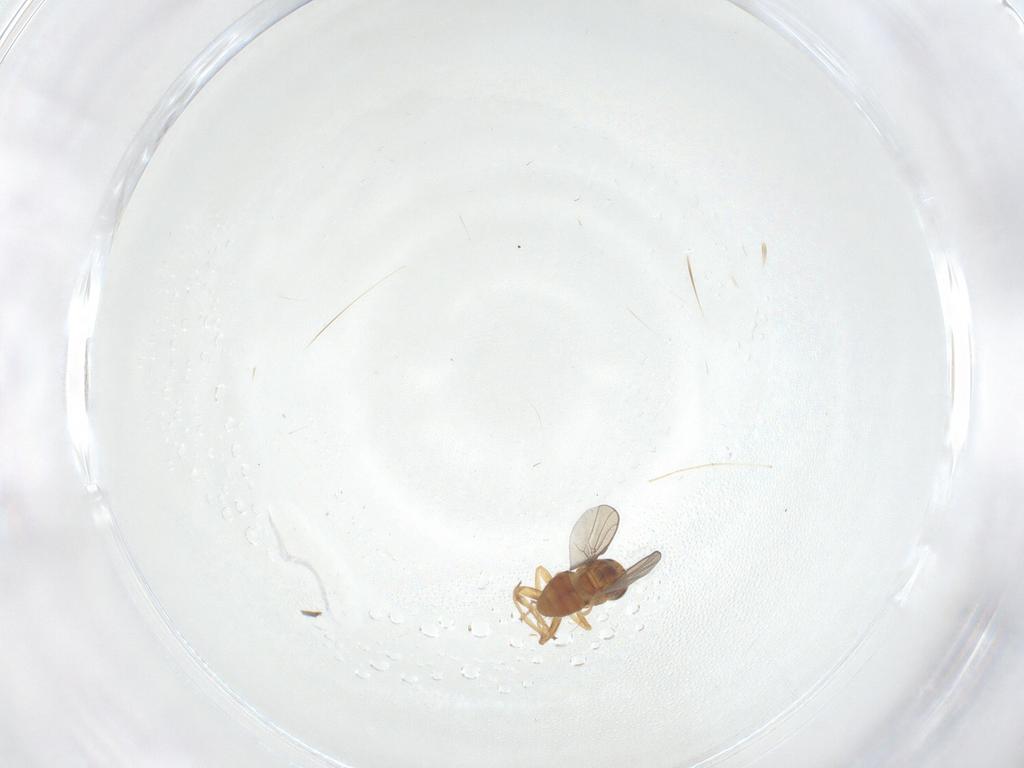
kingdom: Animalia
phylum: Arthropoda
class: Insecta
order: Diptera
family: Chloropidae
